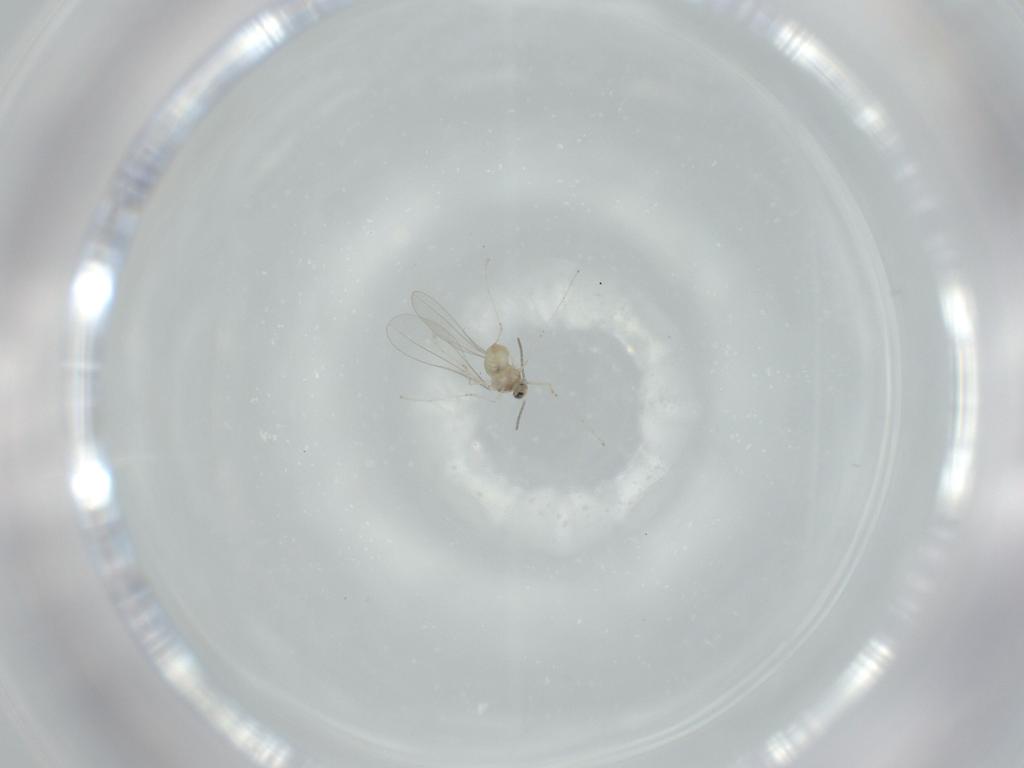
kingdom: Animalia
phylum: Arthropoda
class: Insecta
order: Diptera
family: Cecidomyiidae
